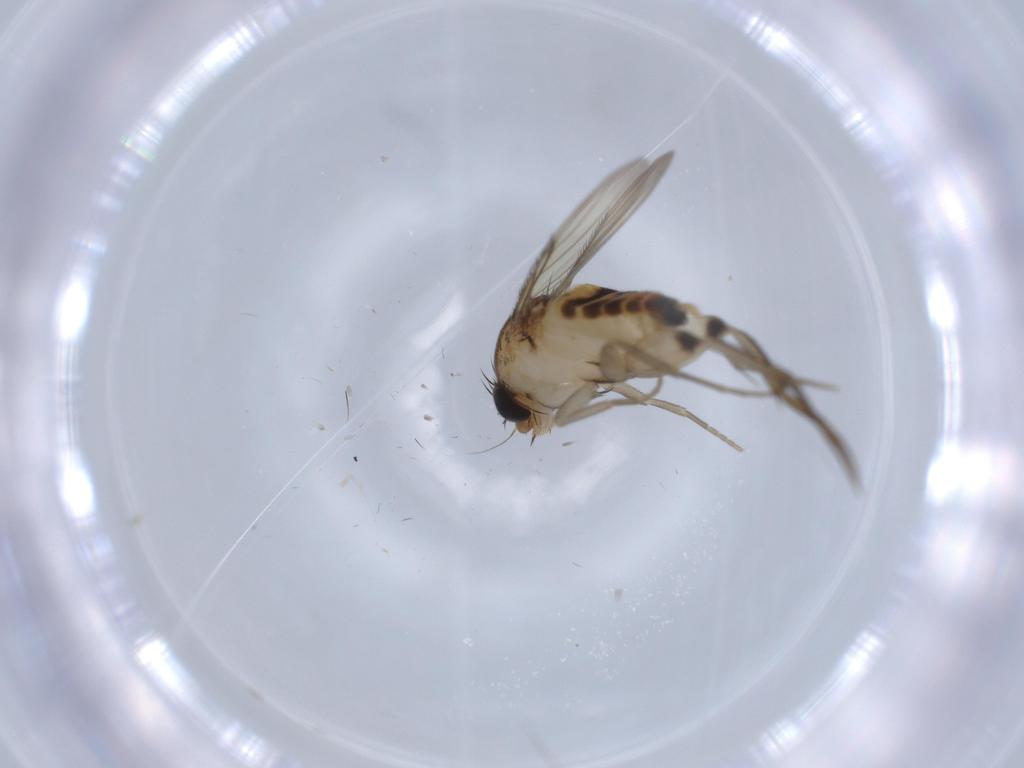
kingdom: Animalia
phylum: Arthropoda
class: Insecta
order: Diptera
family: Phoridae
